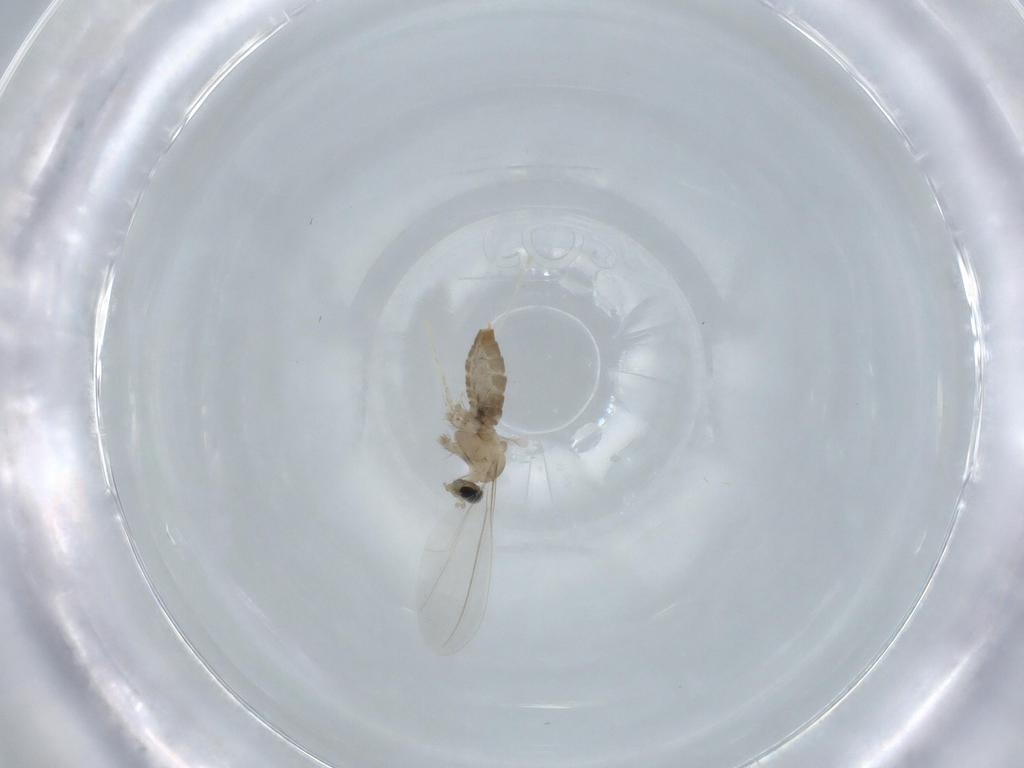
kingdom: Animalia
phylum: Arthropoda
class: Insecta
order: Diptera
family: Cecidomyiidae
